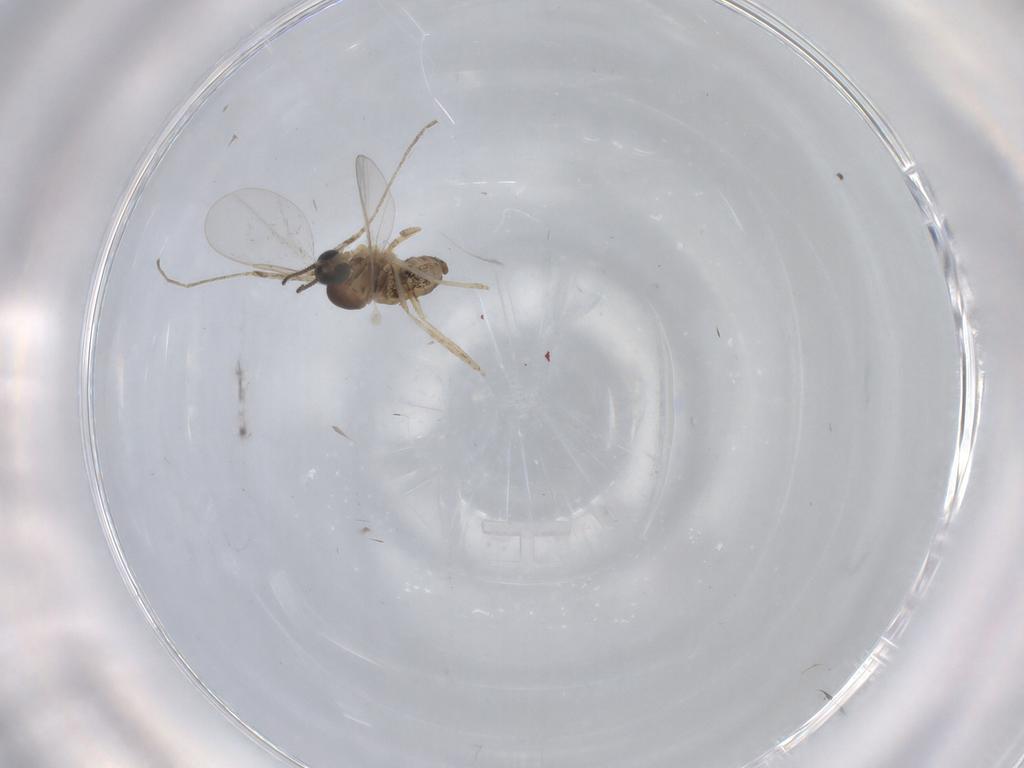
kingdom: Animalia
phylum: Arthropoda
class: Insecta
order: Diptera
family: Cecidomyiidae
